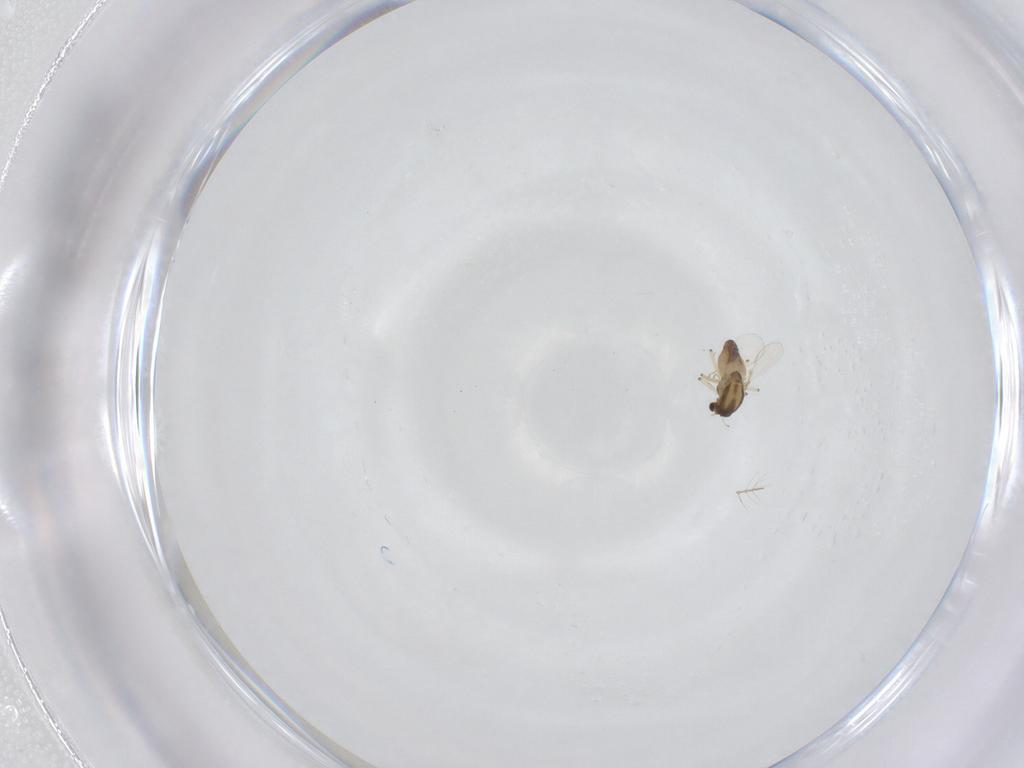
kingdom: Animalia
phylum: Arthropoda
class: Insecta
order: Diptera
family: Chironomidae
